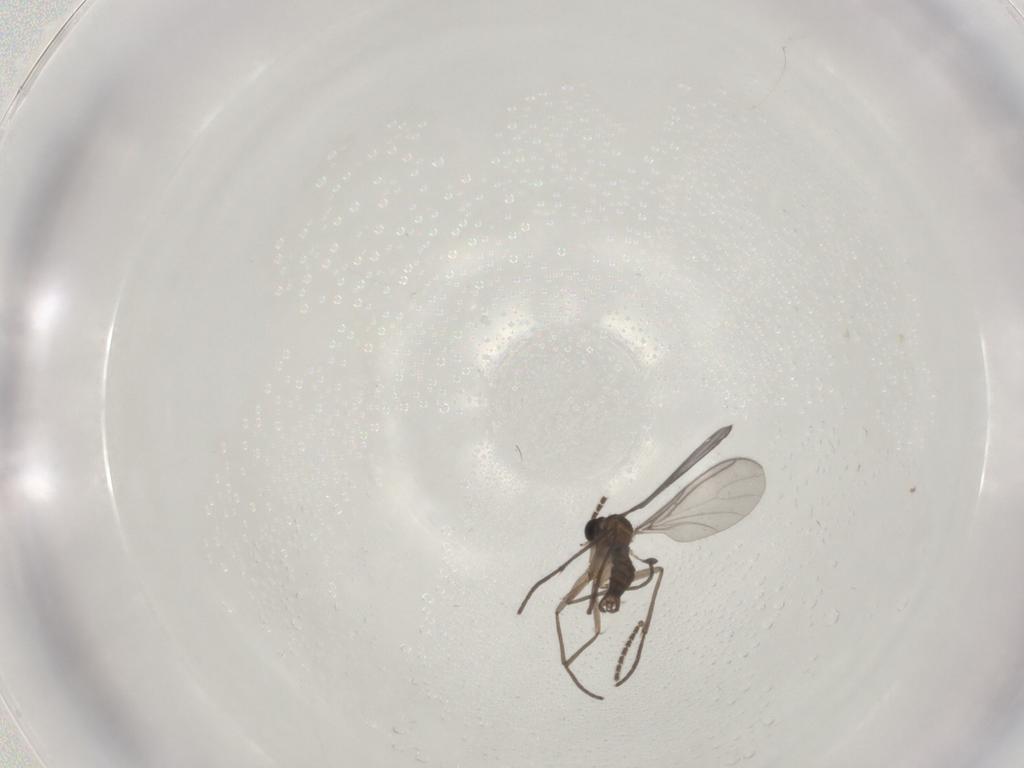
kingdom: Animalia
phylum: Arthropoda
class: Insecta
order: Diptera
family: Sciaridae
